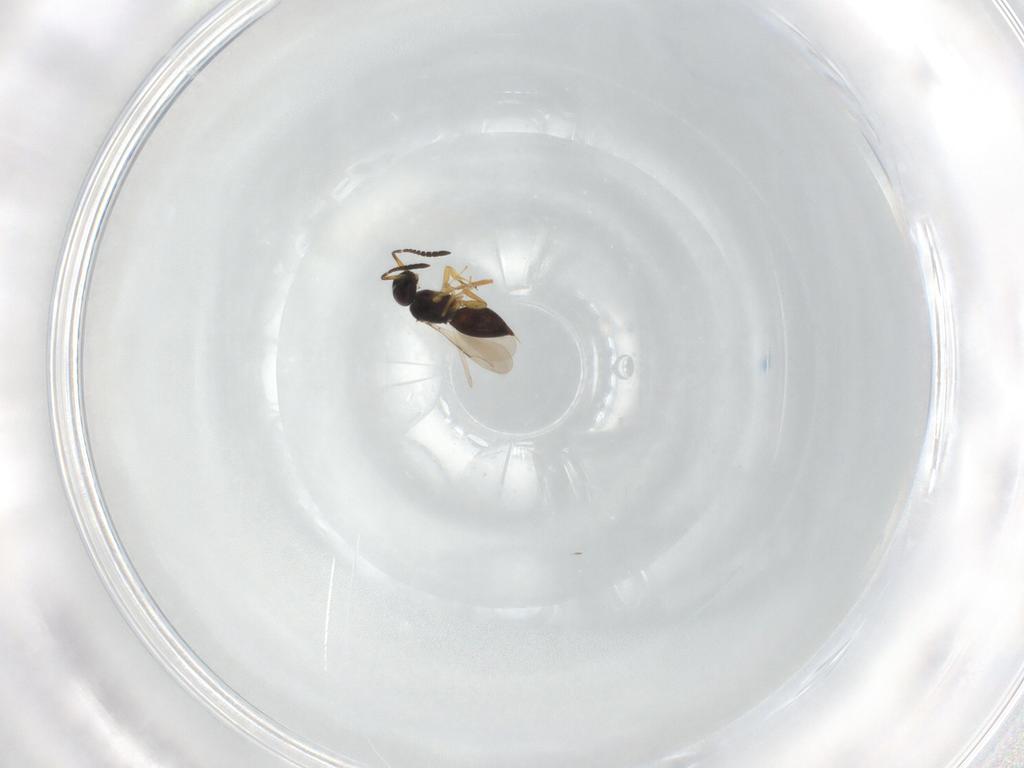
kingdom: Animalia
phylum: Arthropoda
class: Insecta
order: Hymenoptera
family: Ceraphronidae
